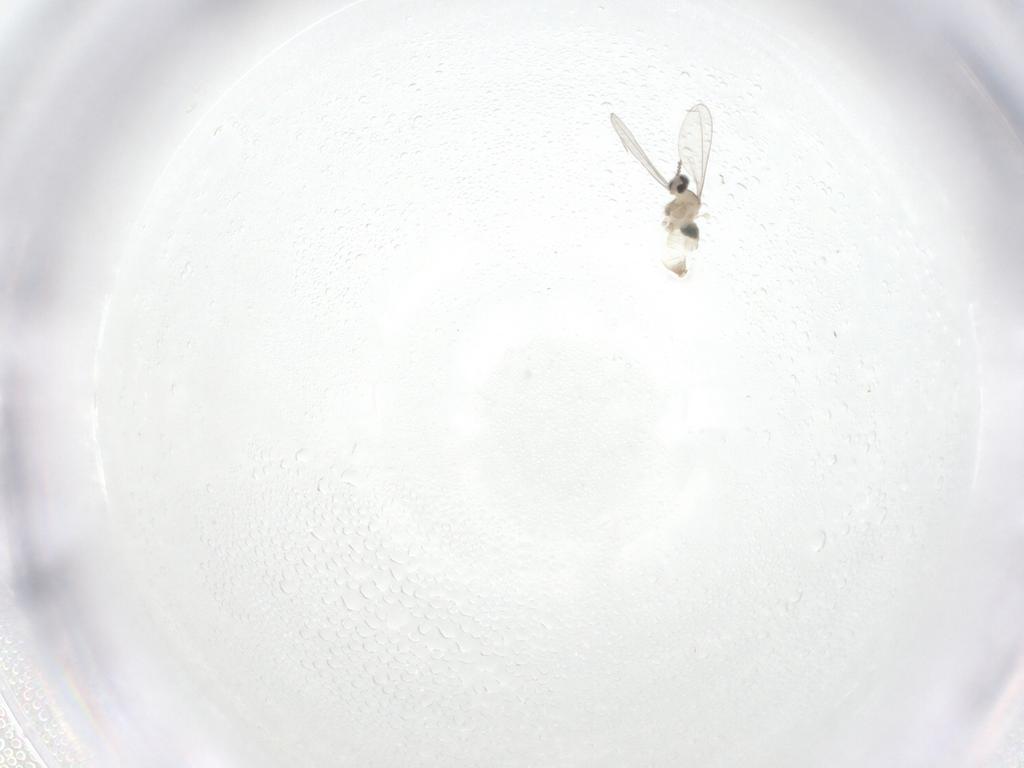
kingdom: Animalia
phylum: Arthropoda
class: Insecta
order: Diptera
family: Cecidomyiidae
